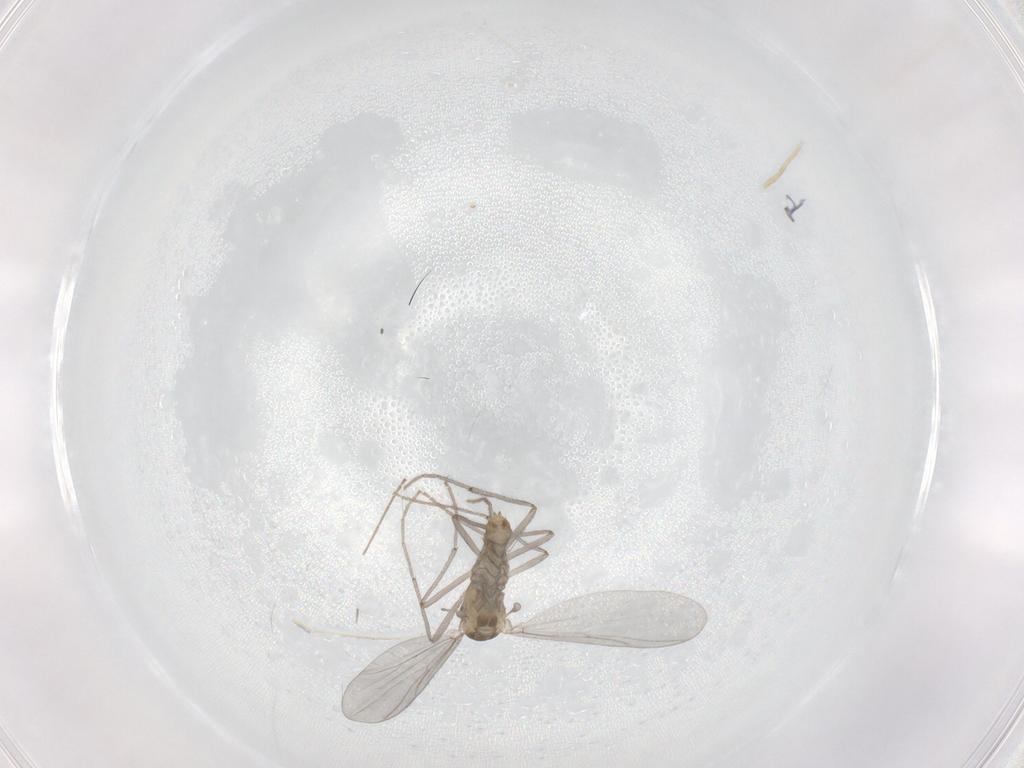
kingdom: Animalia
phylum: Arthropoda
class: Insecta
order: Diptera
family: Chironomidae
